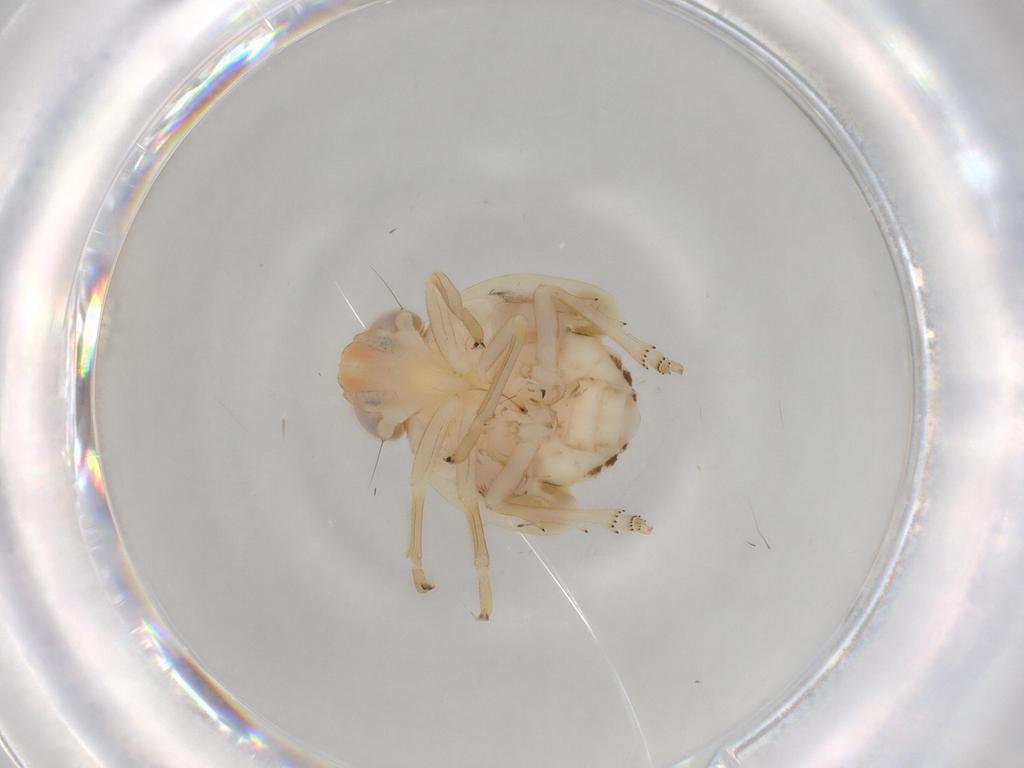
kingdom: Animalia
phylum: Arthropoda
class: Insecta
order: Hemiptera
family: Nogodinidae
